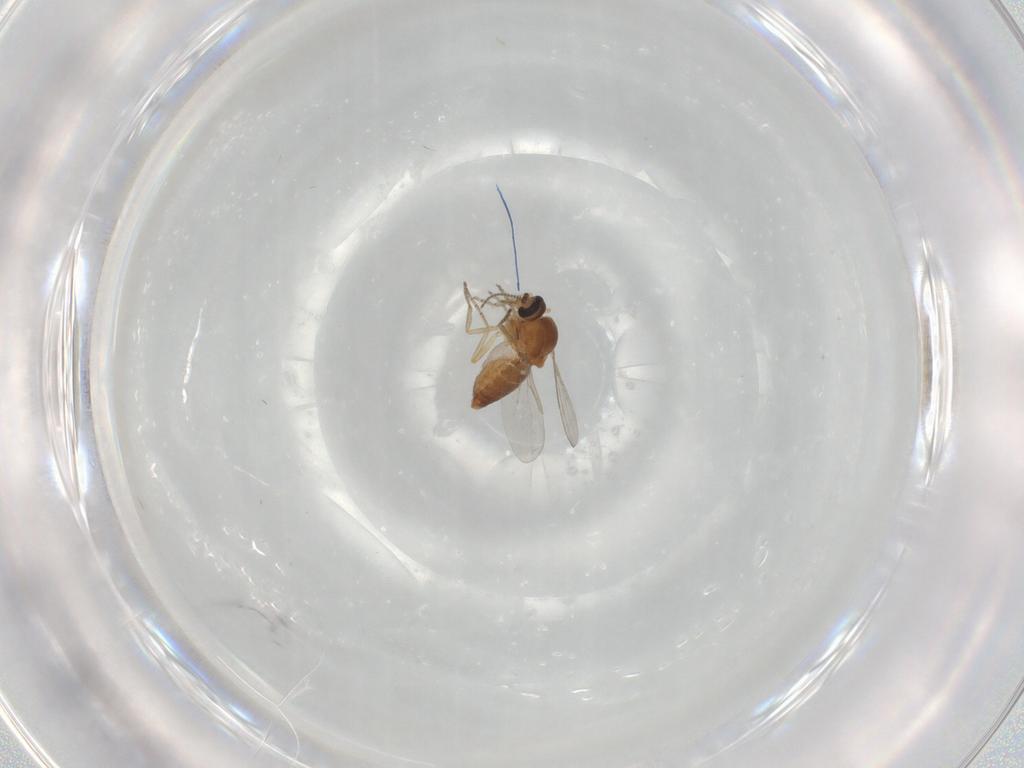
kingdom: Animalia
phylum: Arthropoda
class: Insecta
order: Diptera
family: Ceratopogonidae
